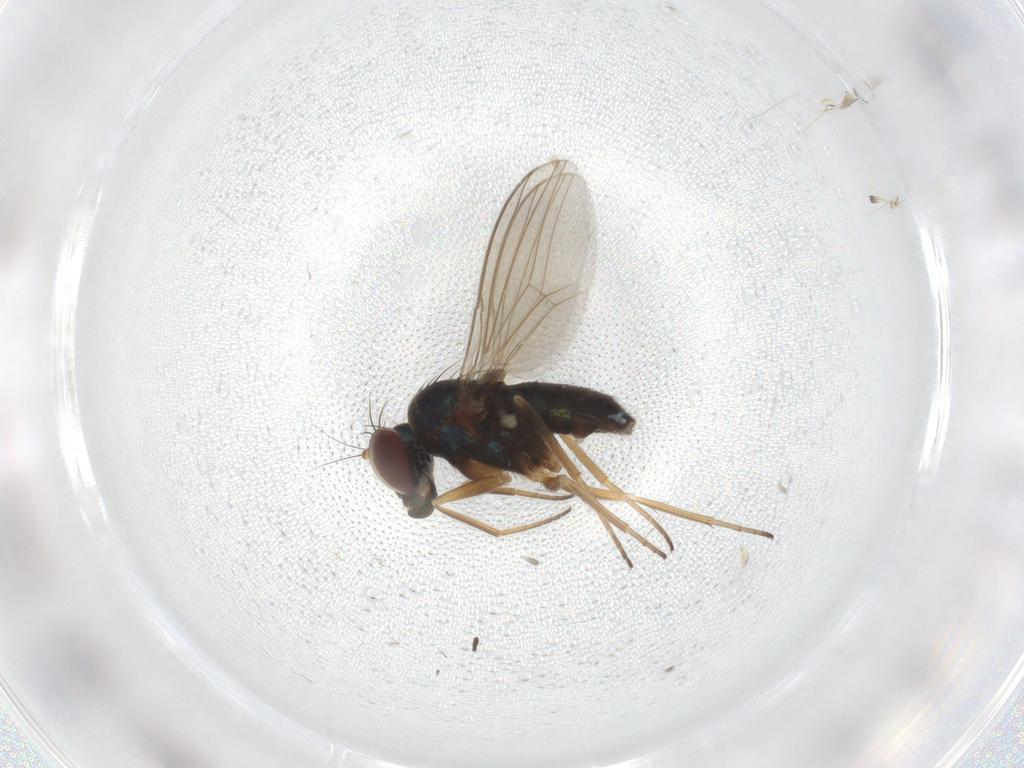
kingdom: Animalia
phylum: Arthropoda
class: Insecta
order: Diptera
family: Dolichopodidae
